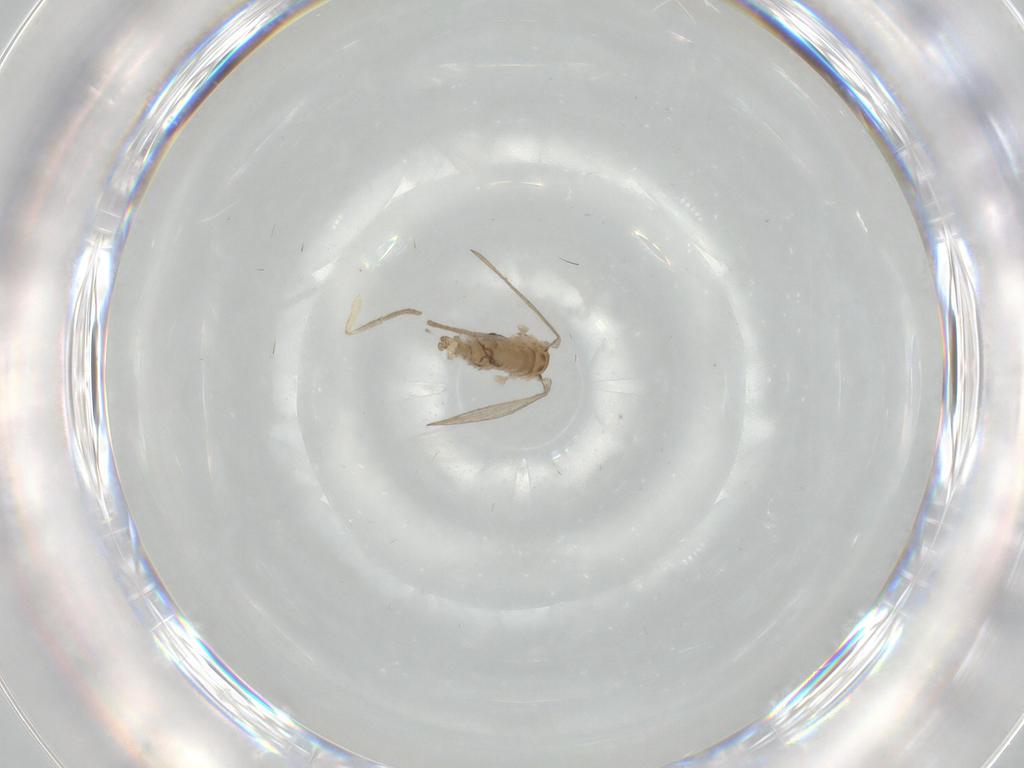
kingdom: Animalia
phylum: Arthropoda
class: Insecta
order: Diptera
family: Psychodidae
